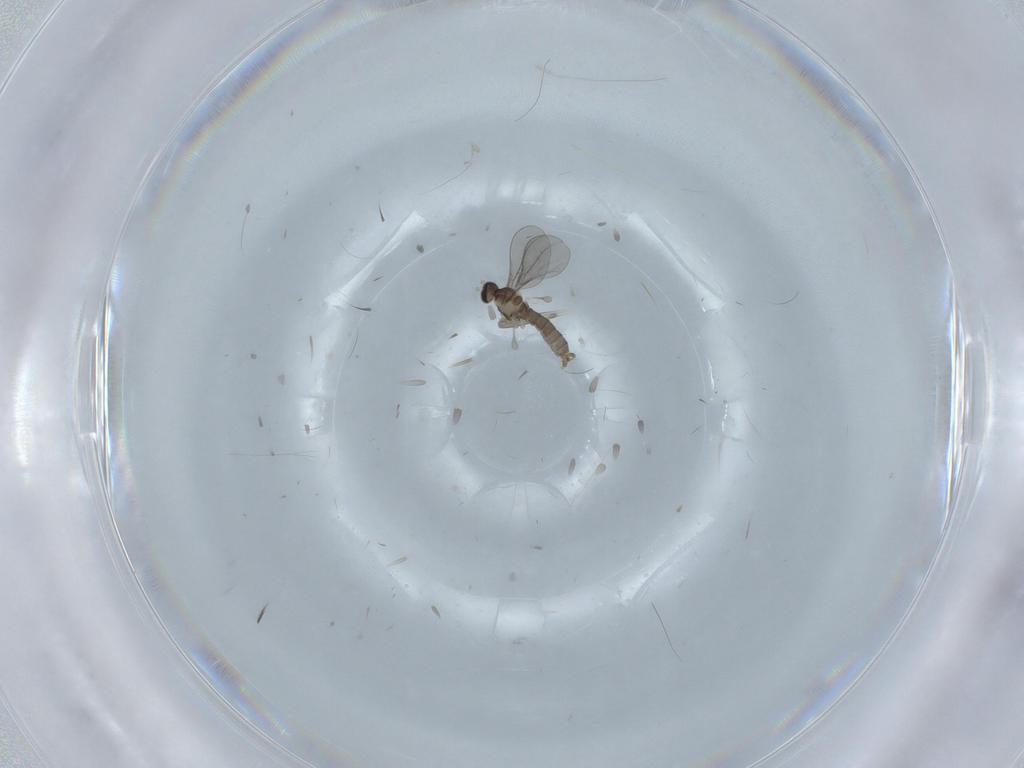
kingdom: Animalia
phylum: Arthropoda
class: Insecta
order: Diptera
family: Cecidomyiidae
